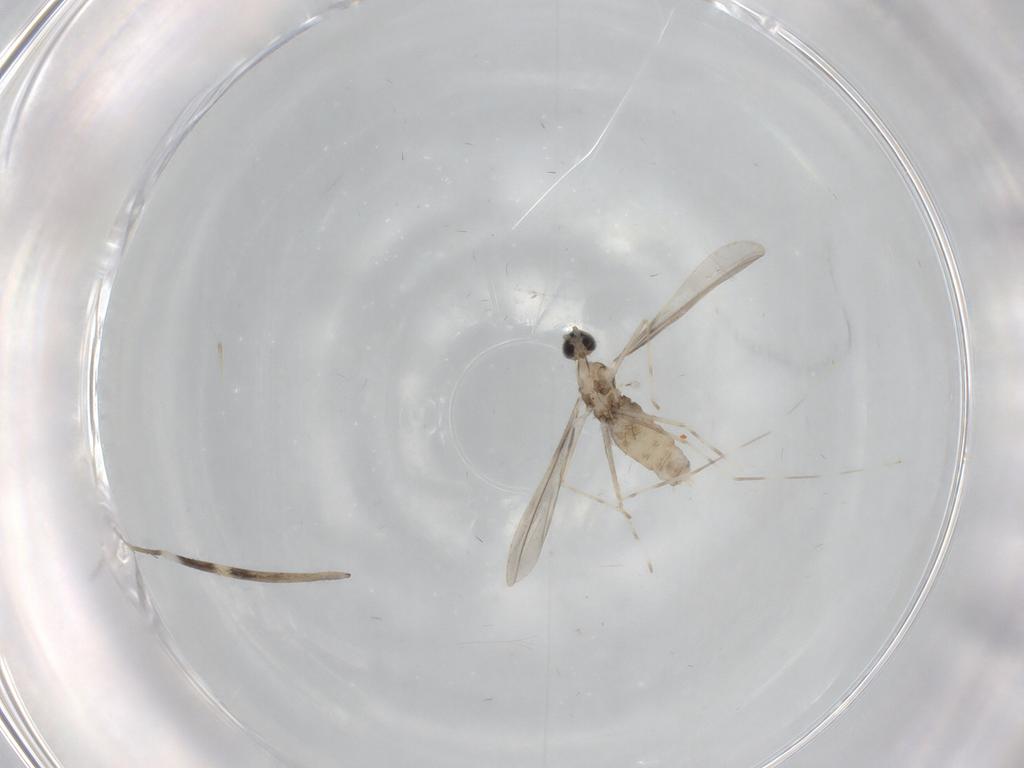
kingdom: Animalia
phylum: Arthropoda
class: Insecta
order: Diptera
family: Cecidomyiidae
